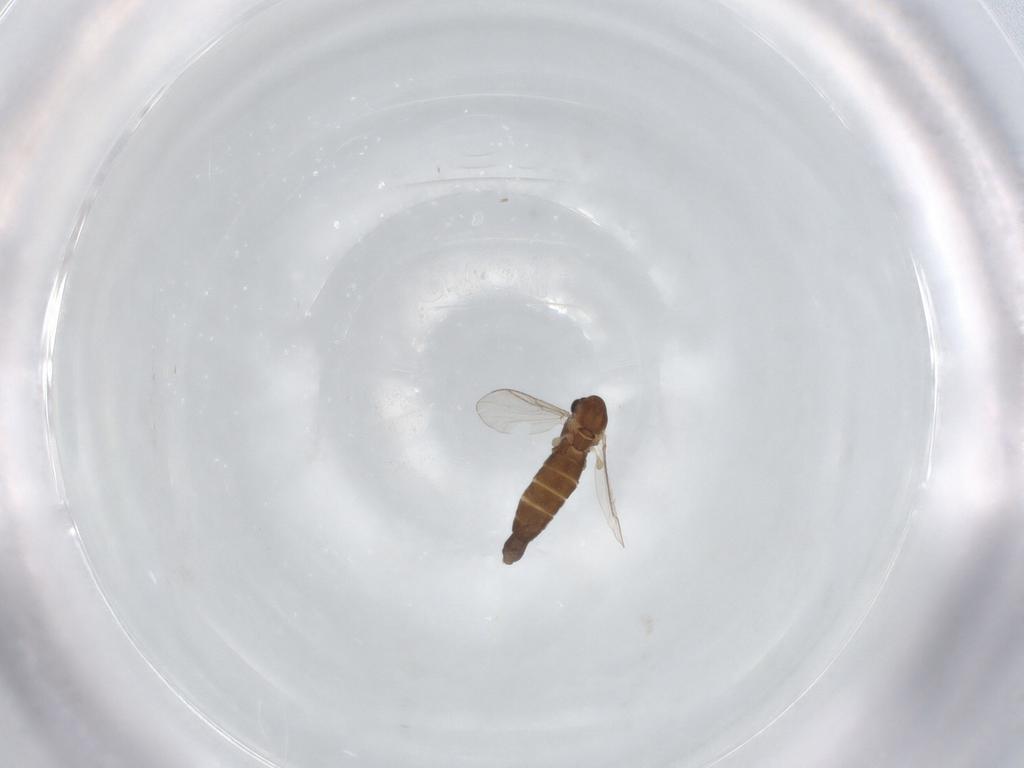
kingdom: Animalia
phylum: Arthropoda
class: Insecta
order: Diptera
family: Chironomidae
